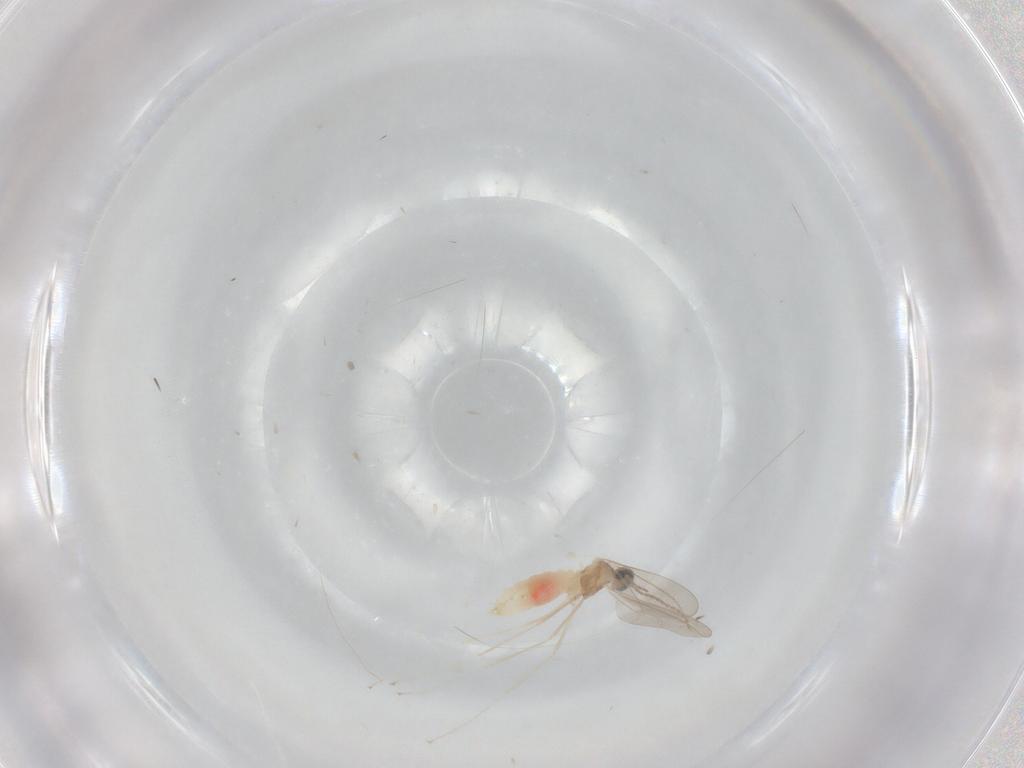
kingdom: Animalia
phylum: Arthropoda
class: Insecta
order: Diptera
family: Cecidomyiidae
